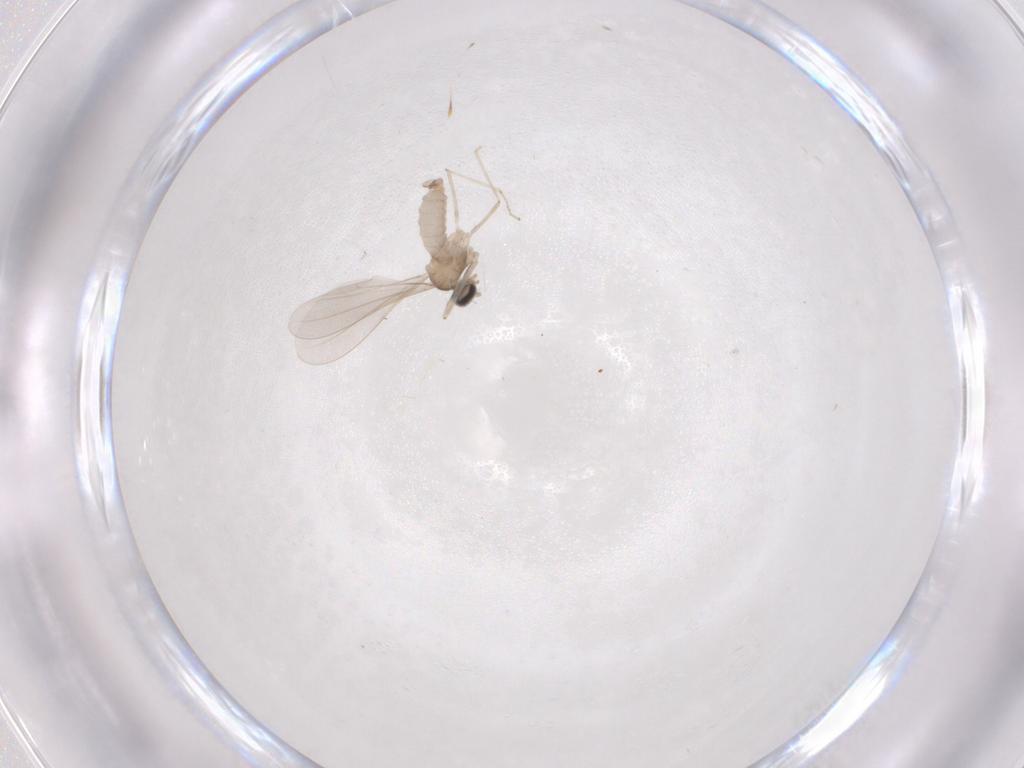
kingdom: Animalia
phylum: Arthropoda
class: Insecta
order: Diptera
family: Cecidomyiidae
